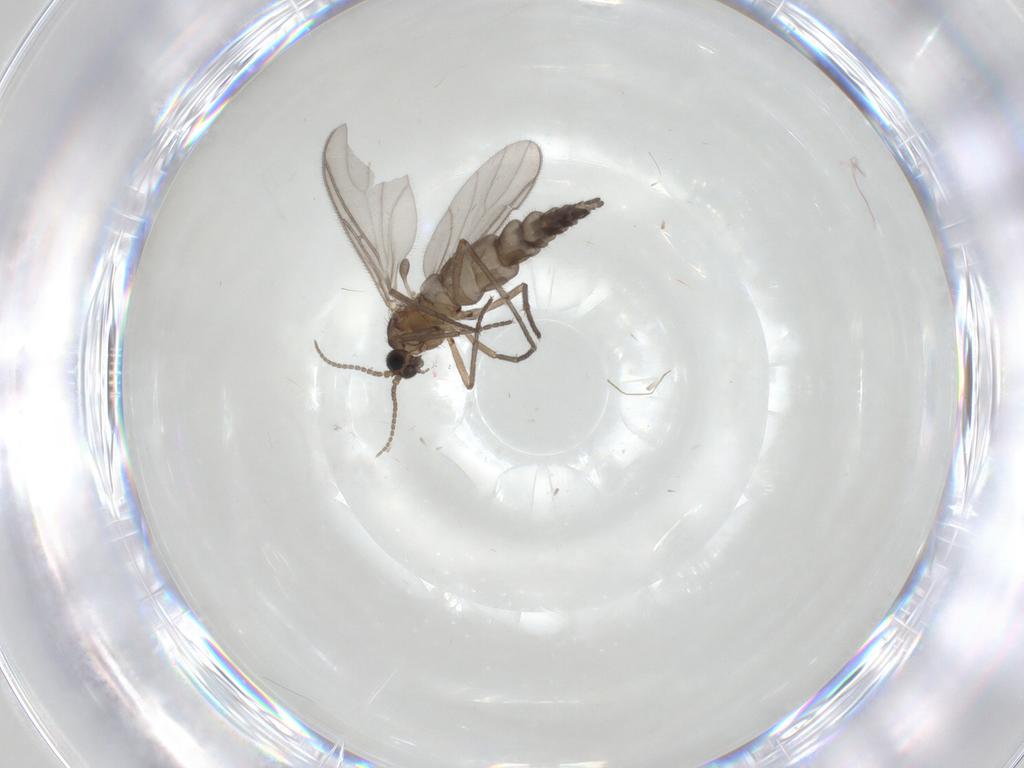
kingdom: Animalia
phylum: Arthropoda
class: Insecta
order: Diptera
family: Sciaridae
